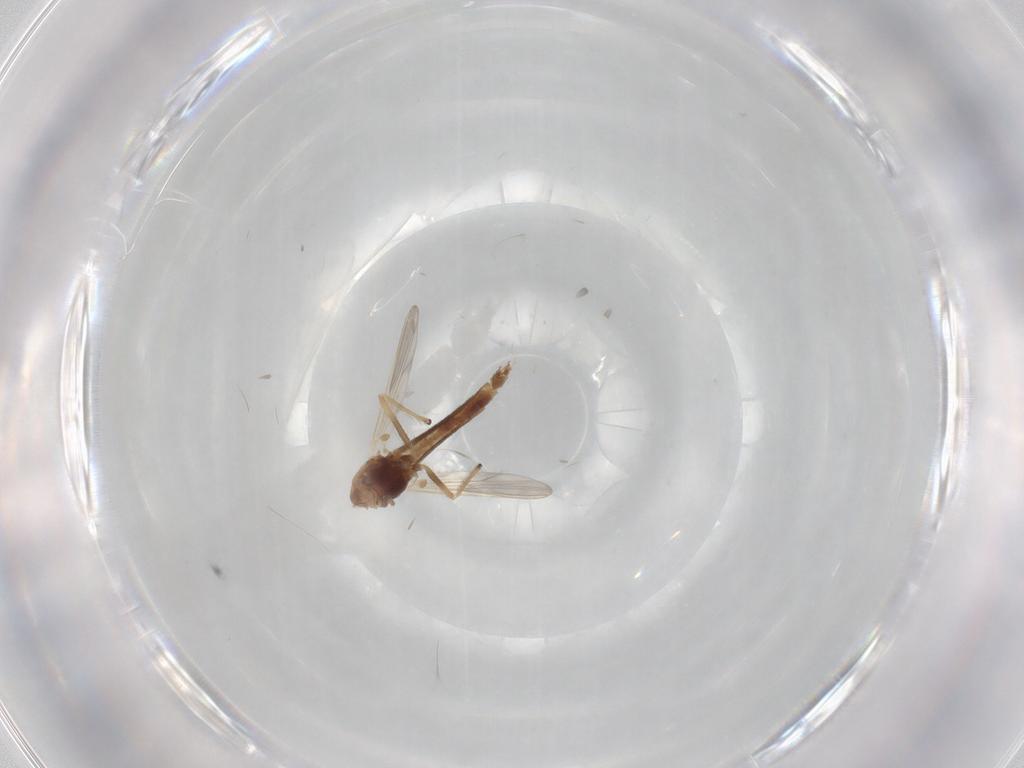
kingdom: Animalia
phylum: Arthropoda
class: Insecta
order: Diptera
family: Chironomidae
